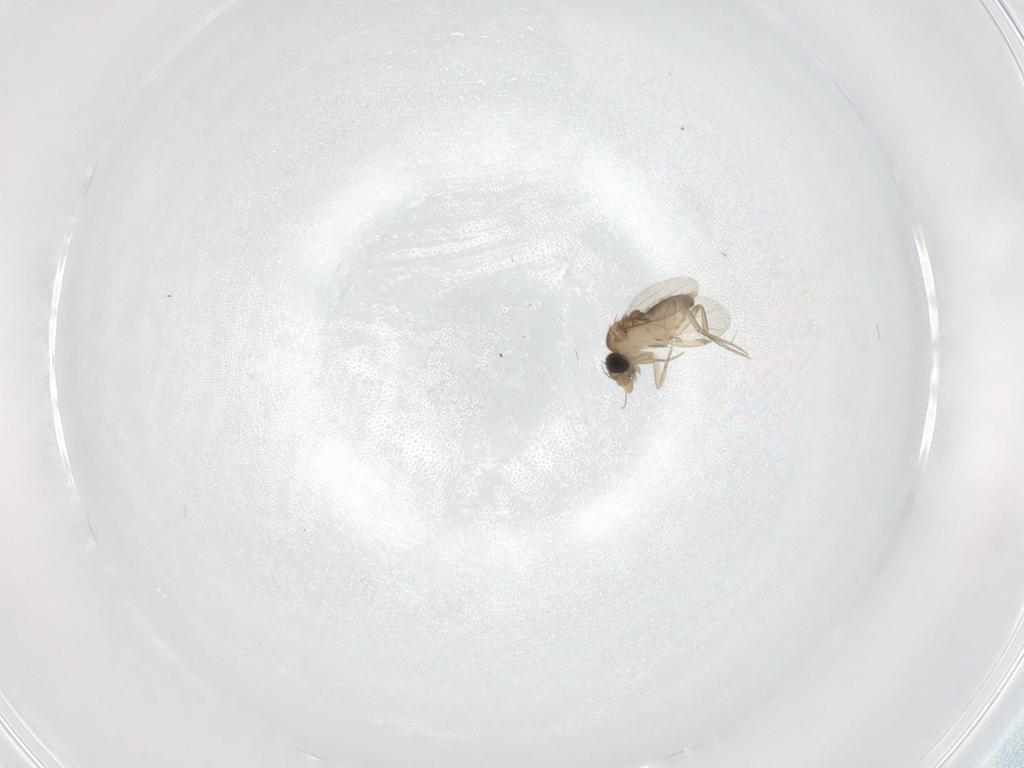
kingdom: Animalia
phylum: Arthropoda
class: Insecta
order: Diptera
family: Phoridae
